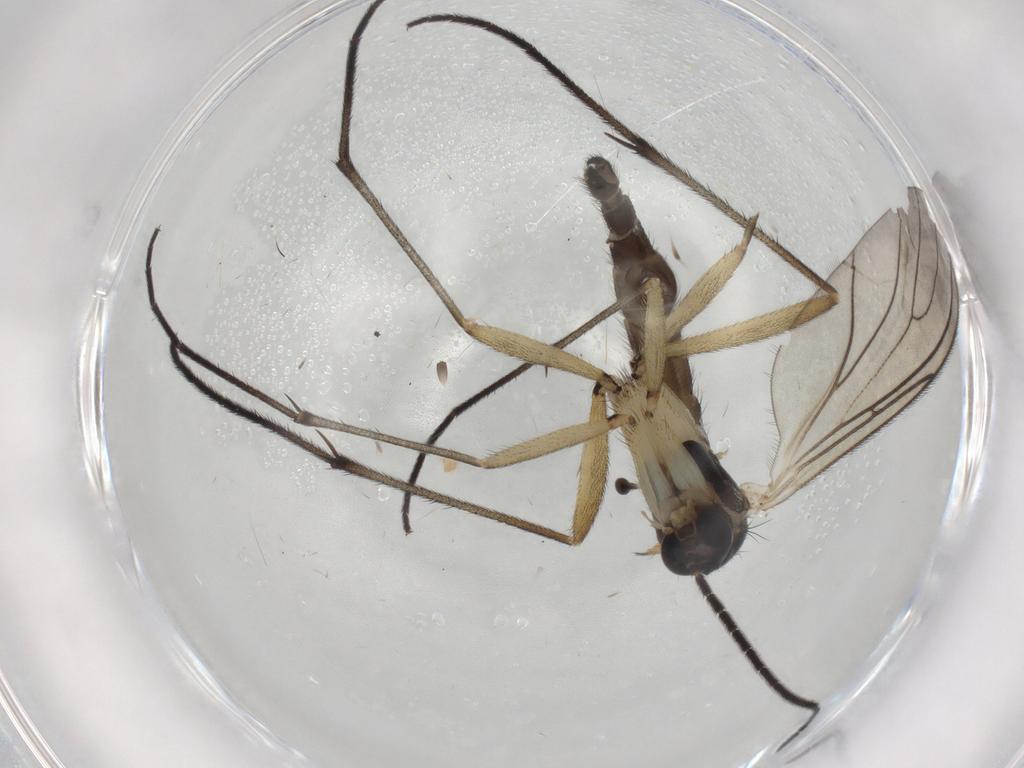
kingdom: Animalia
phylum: Arthropoda
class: Insecta
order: Diptera
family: Sciaridae
